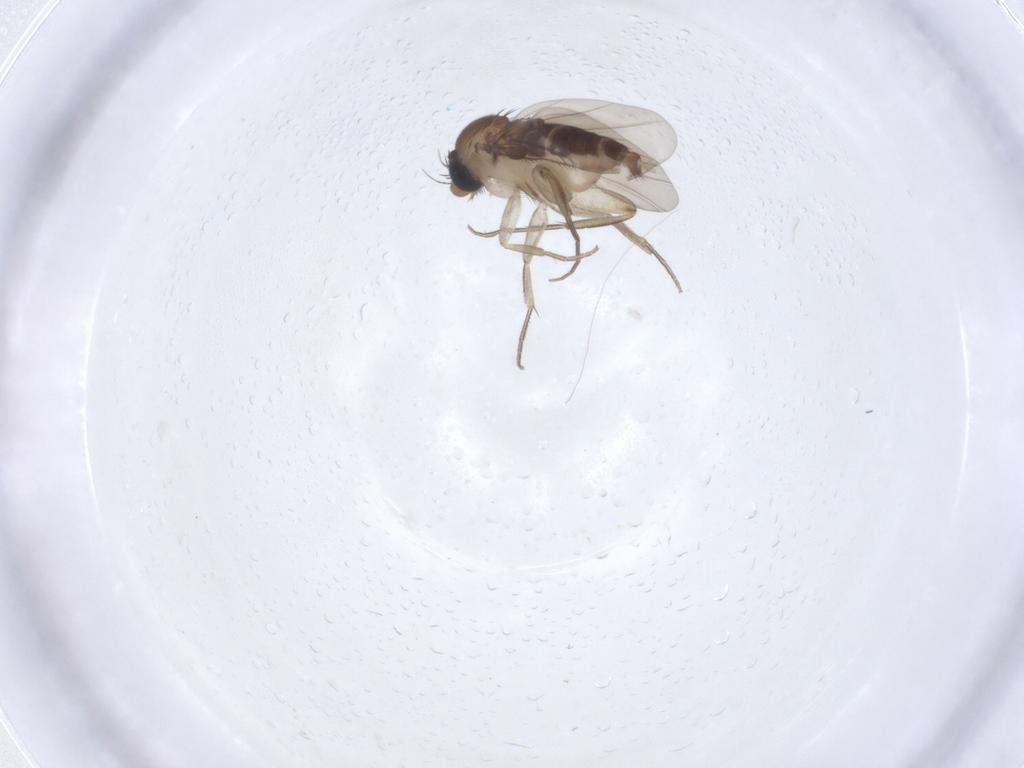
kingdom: Animalia
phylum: Arthropoda
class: Insecta
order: Diptera
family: Phoridae
